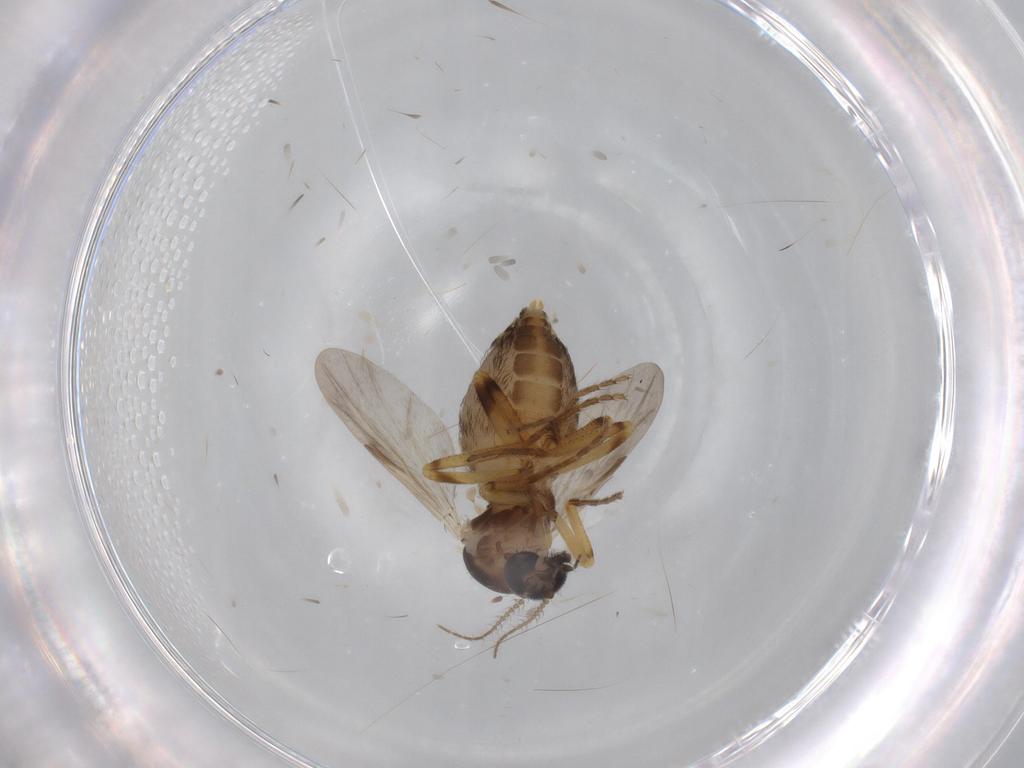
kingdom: Animalia
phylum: Arthropoda
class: Insecta
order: Diptera
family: Ceratopogonidae
